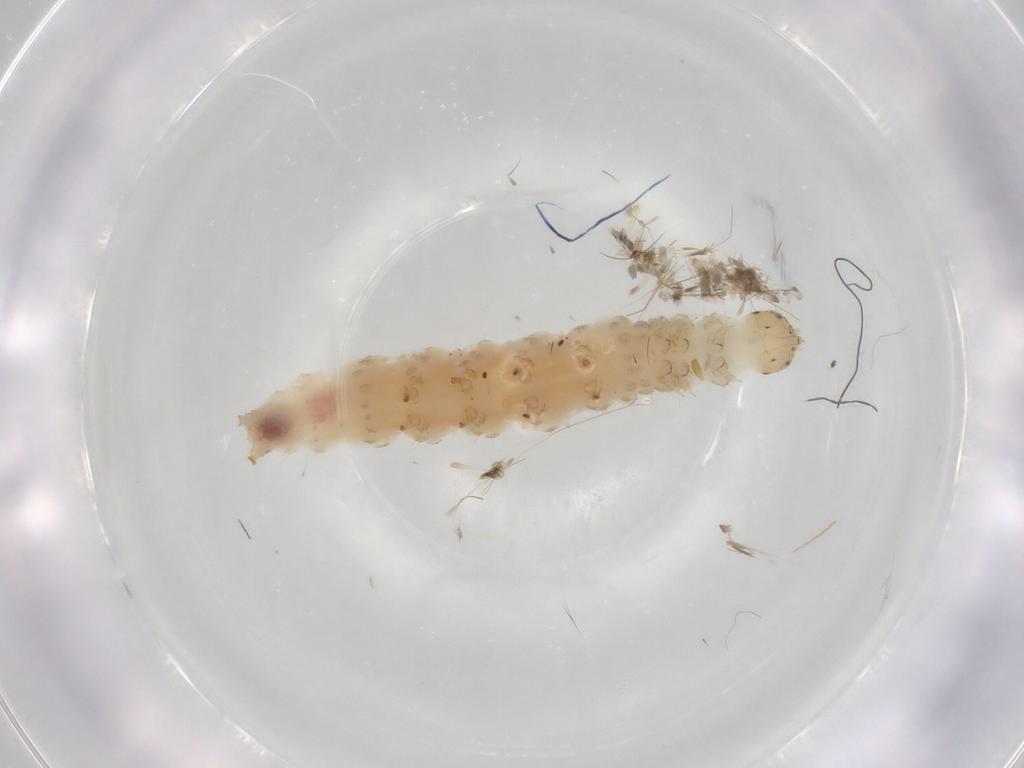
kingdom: Animalia
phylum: Arthropoda
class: Insecta
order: Lepidoptera
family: Crambidae
